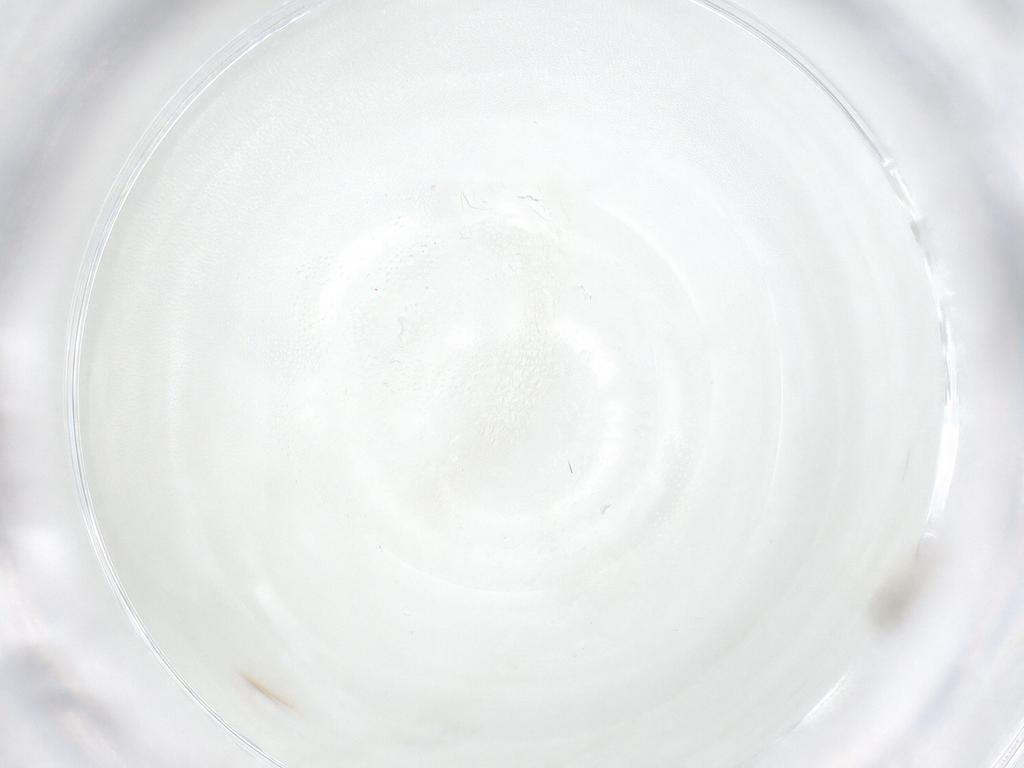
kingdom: Animalia
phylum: Arthropoda
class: Insecta
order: Diptera
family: Cecidomyiidae
